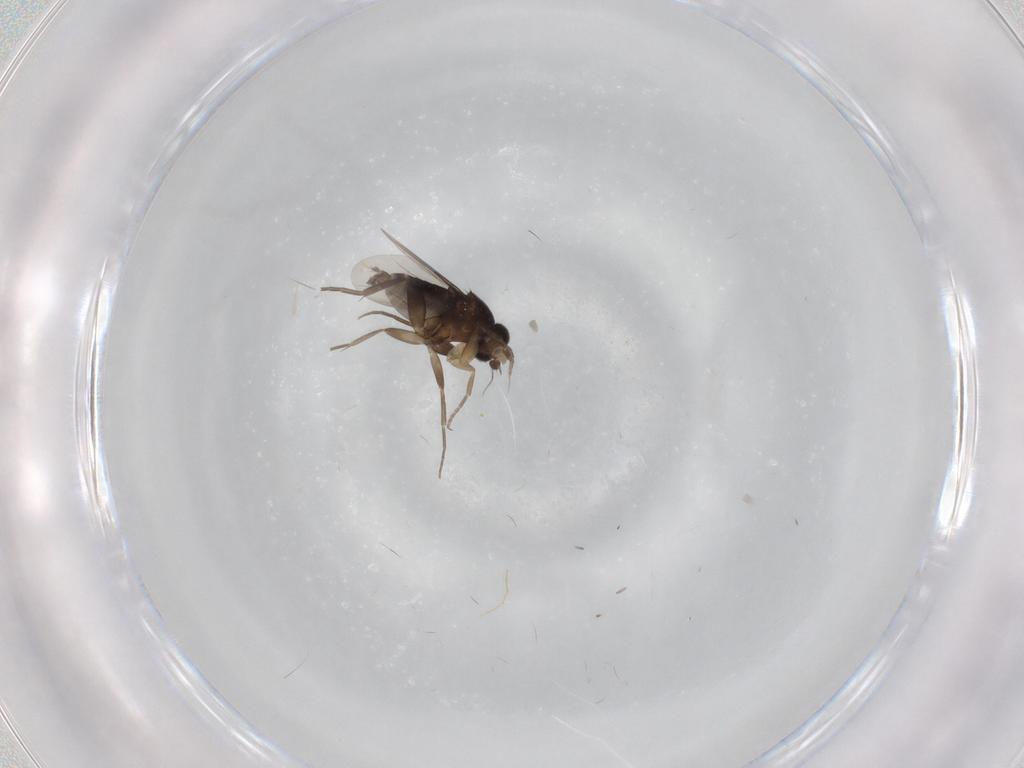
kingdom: Animalia
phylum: Arthropoda
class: Insecta
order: Diptera
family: Phoridae
